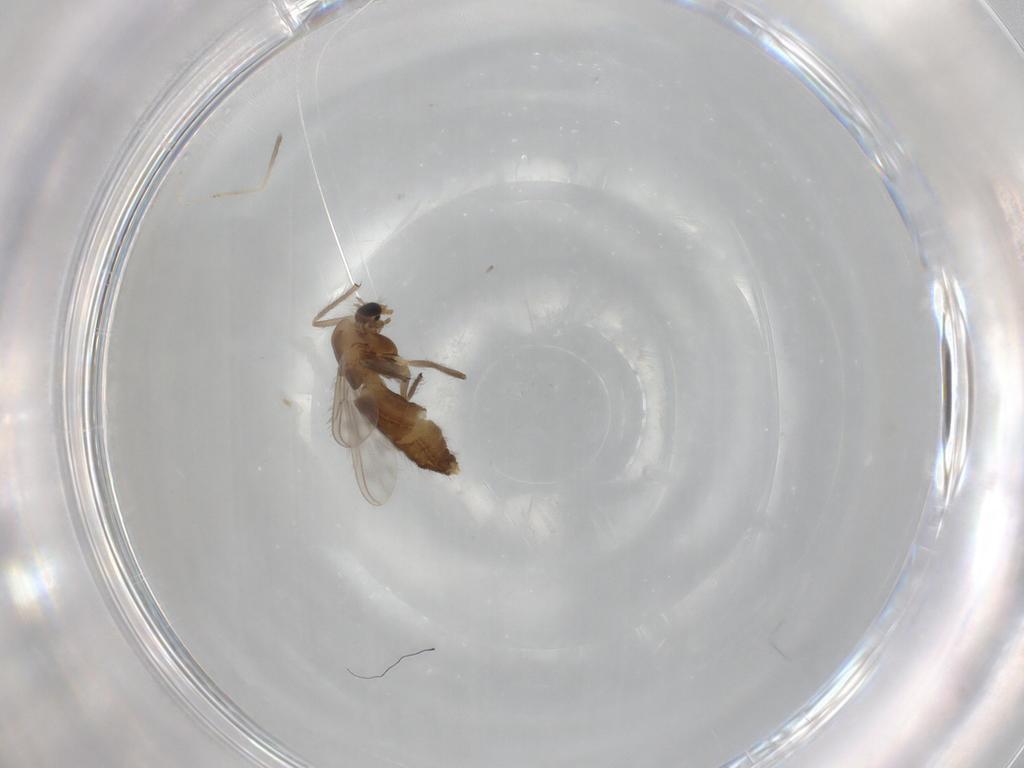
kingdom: Animalia
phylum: Arthropoda
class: Insecta
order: Diptera
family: Chironomidae
